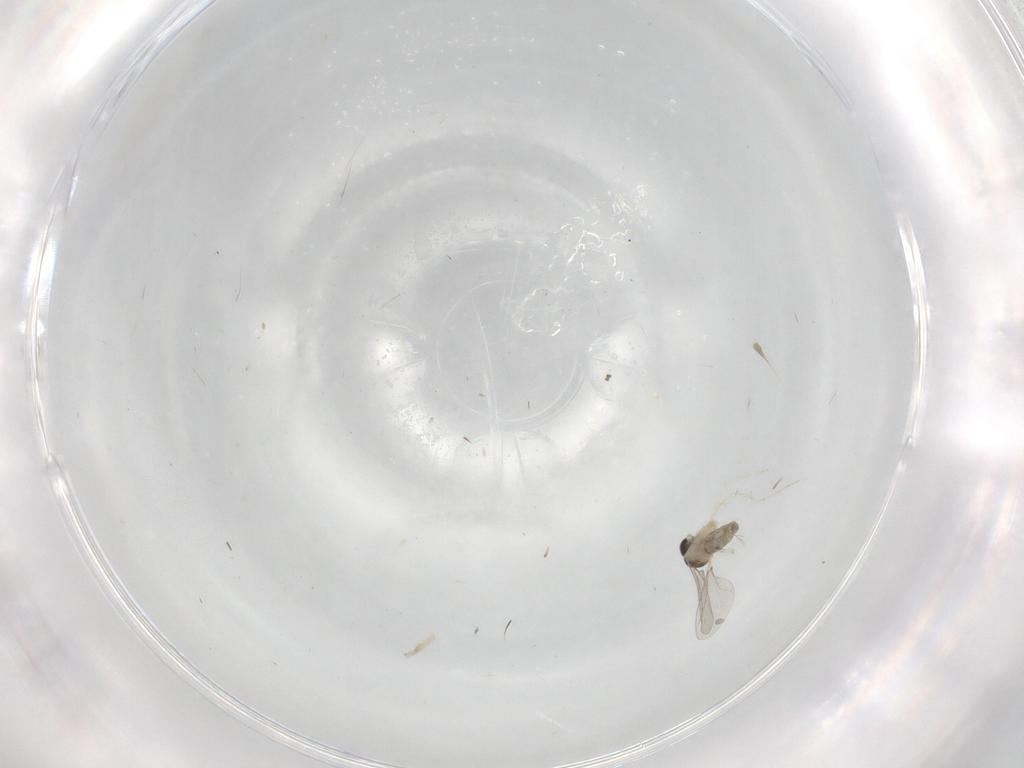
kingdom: Animalia
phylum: Arthropoda
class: Insecta
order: Diptera
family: Cecidomyiidae
